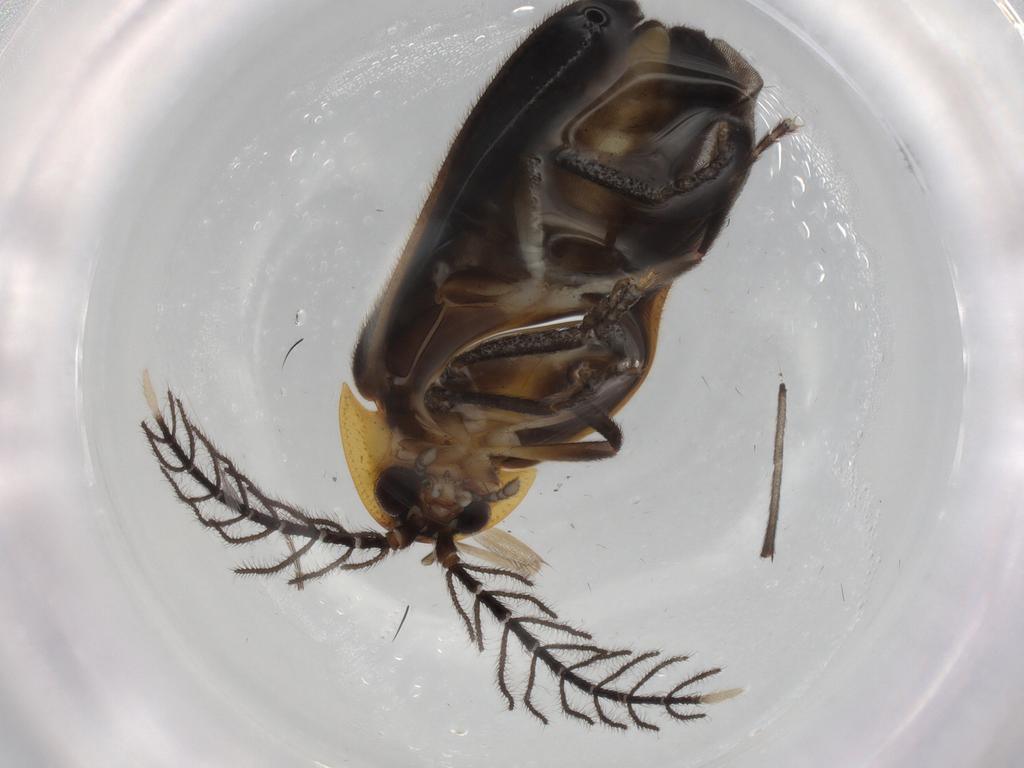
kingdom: Animalia
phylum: Arthropoda
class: Insecta
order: Coleoptera
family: Lampyridae
